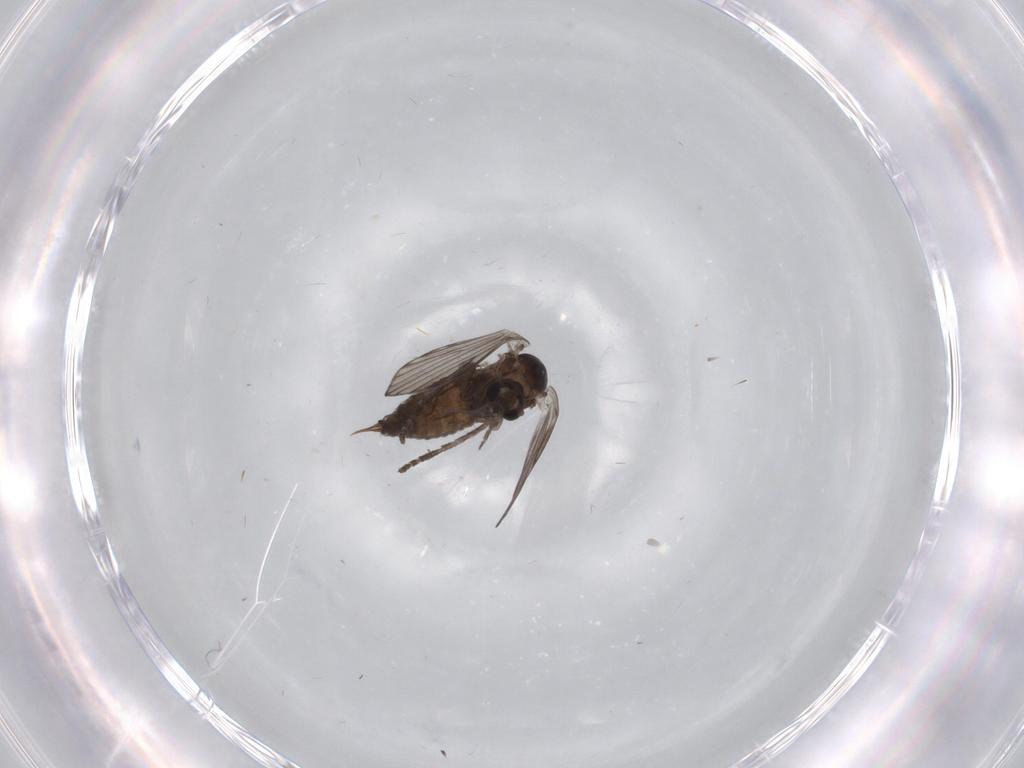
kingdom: Animalia
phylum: Arthropoda
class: Insecta
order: Diptera
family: Psychodidae
